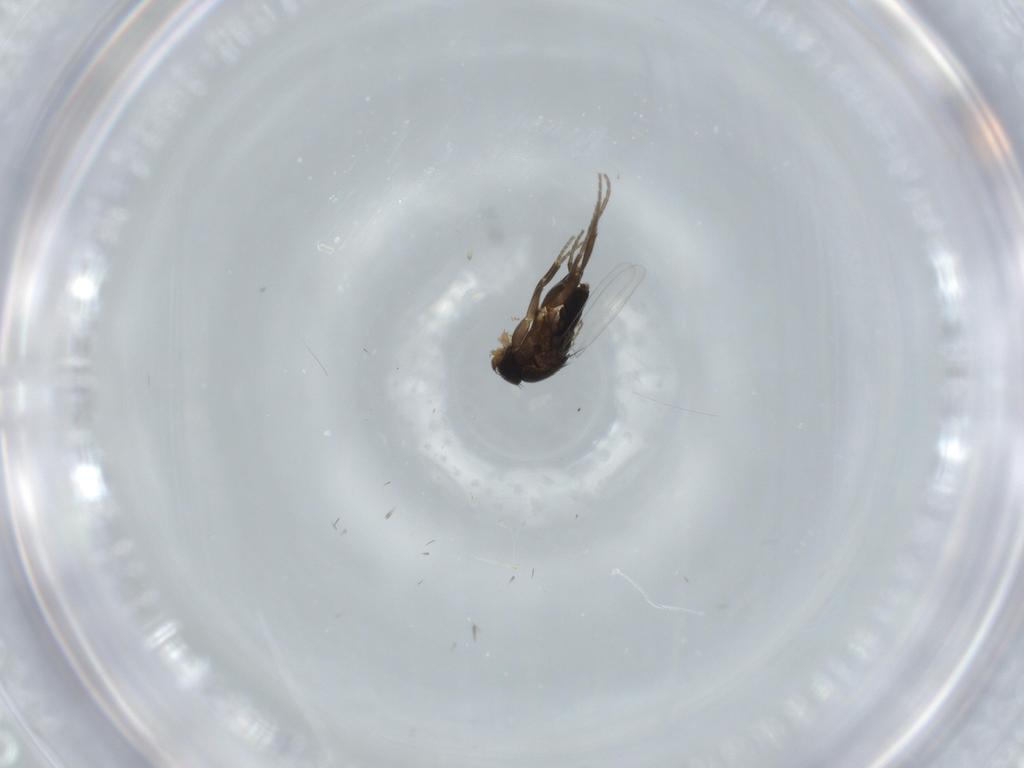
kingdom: Animalia
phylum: Arthropoda
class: Insecta
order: Diptera
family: Phoridae
